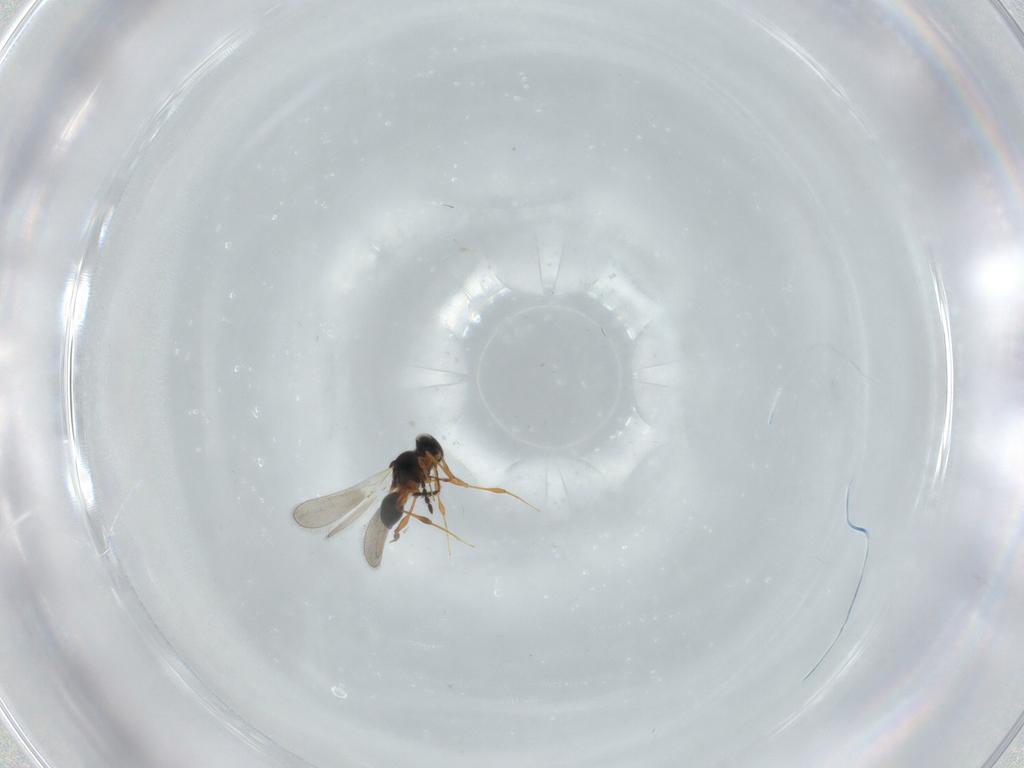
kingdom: Animalia
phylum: Arthropoda
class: Insecta
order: Hymenoptera
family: Platygastridae
